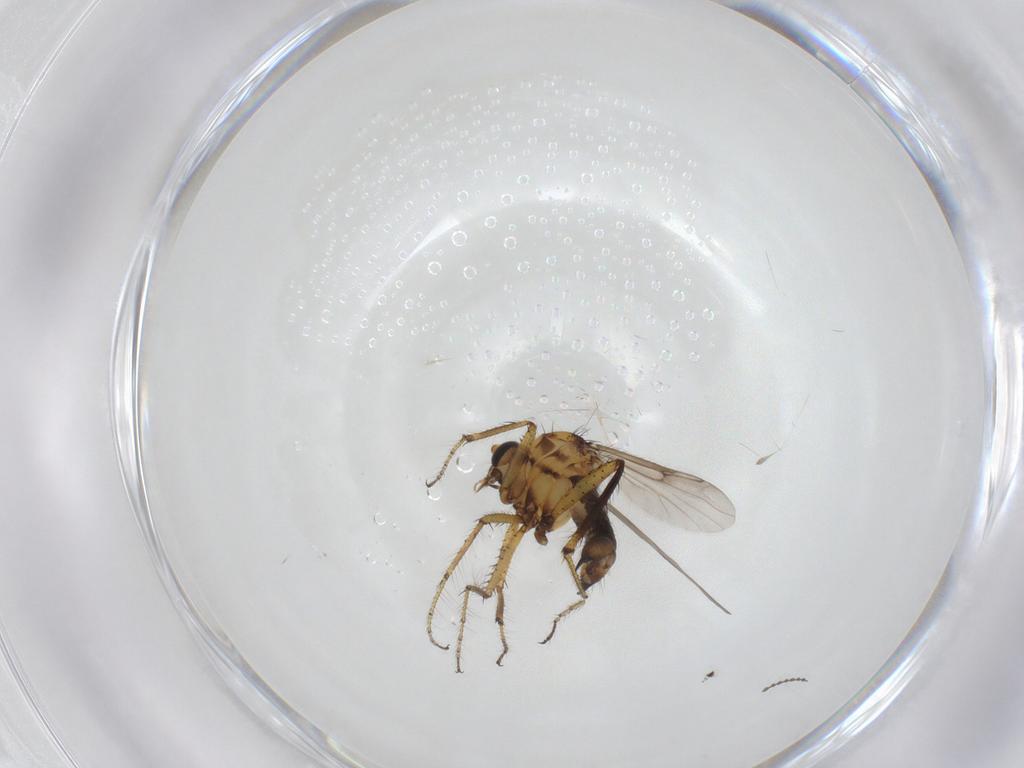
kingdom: Animalia
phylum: Arthropoda
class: Insecta
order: Diptera
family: Ceratopogonidae
